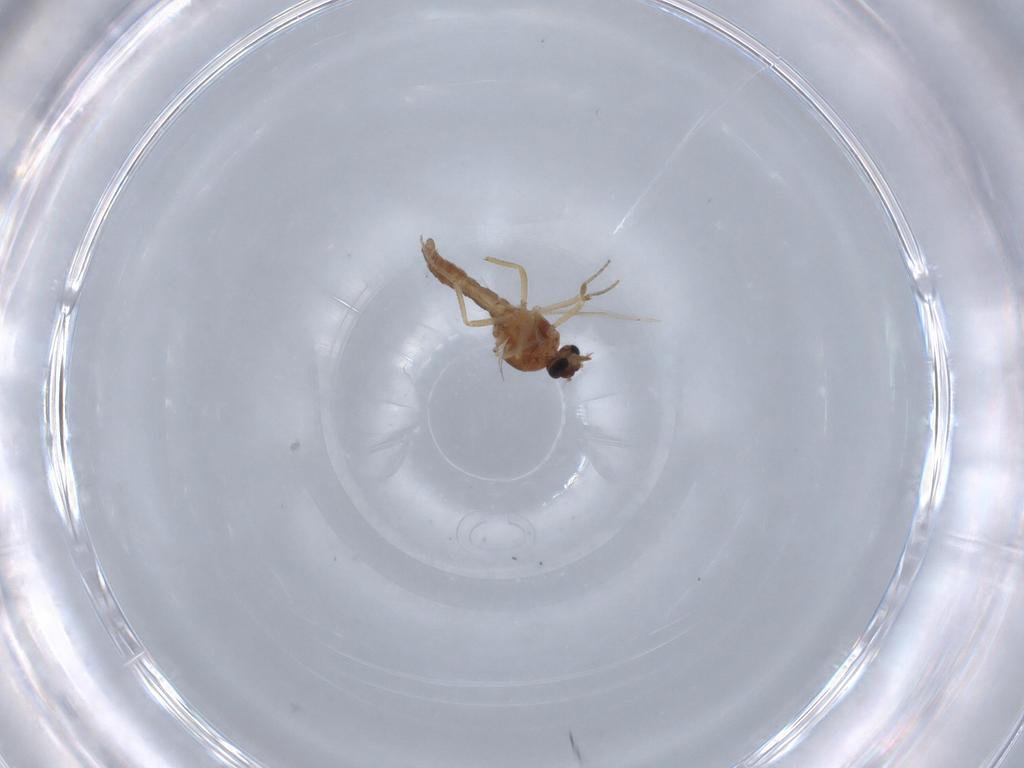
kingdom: Animalia
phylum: Arthropoda
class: Insecta
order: Diptera
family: Ceratopogonidae
